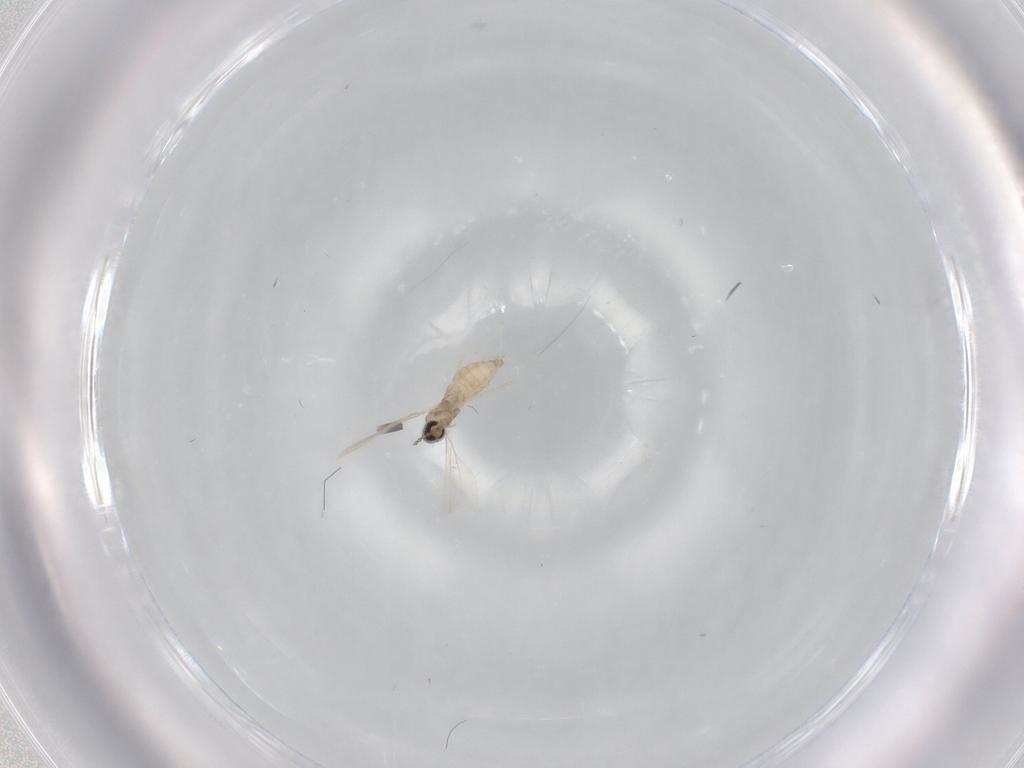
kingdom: Animalia
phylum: Arthropoda
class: Insecta
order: Diptera
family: Cecidomyiidae
